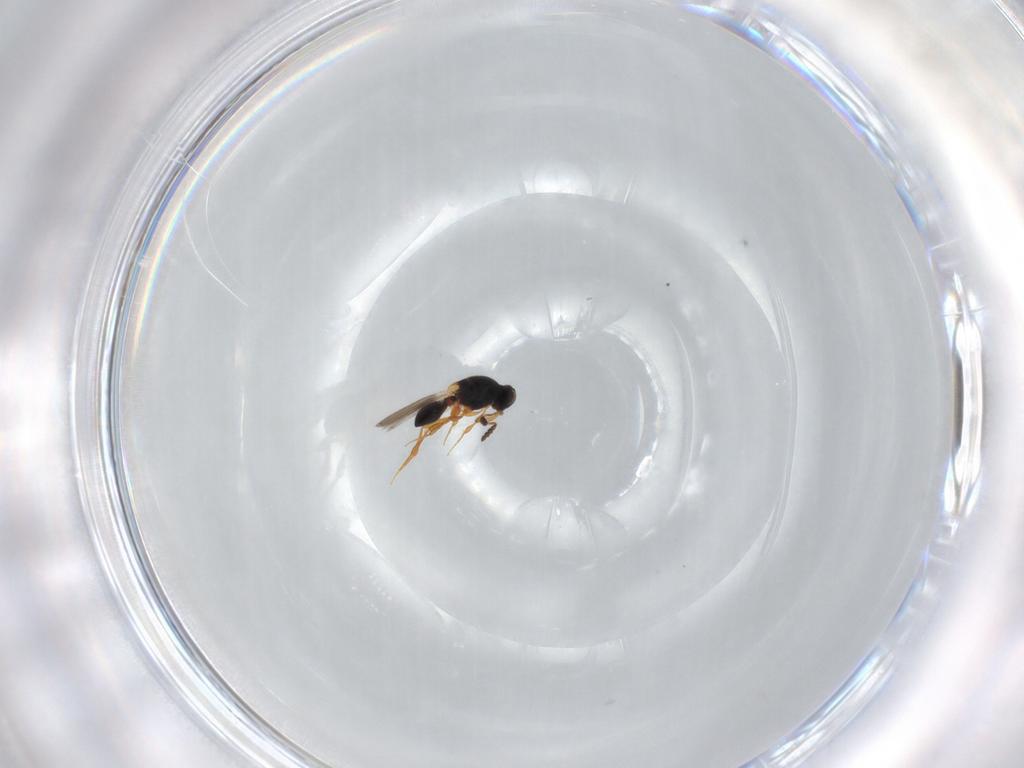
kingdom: Animalia
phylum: Arthropoda
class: Insecta
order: Hymenoptera
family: Platygastridae
